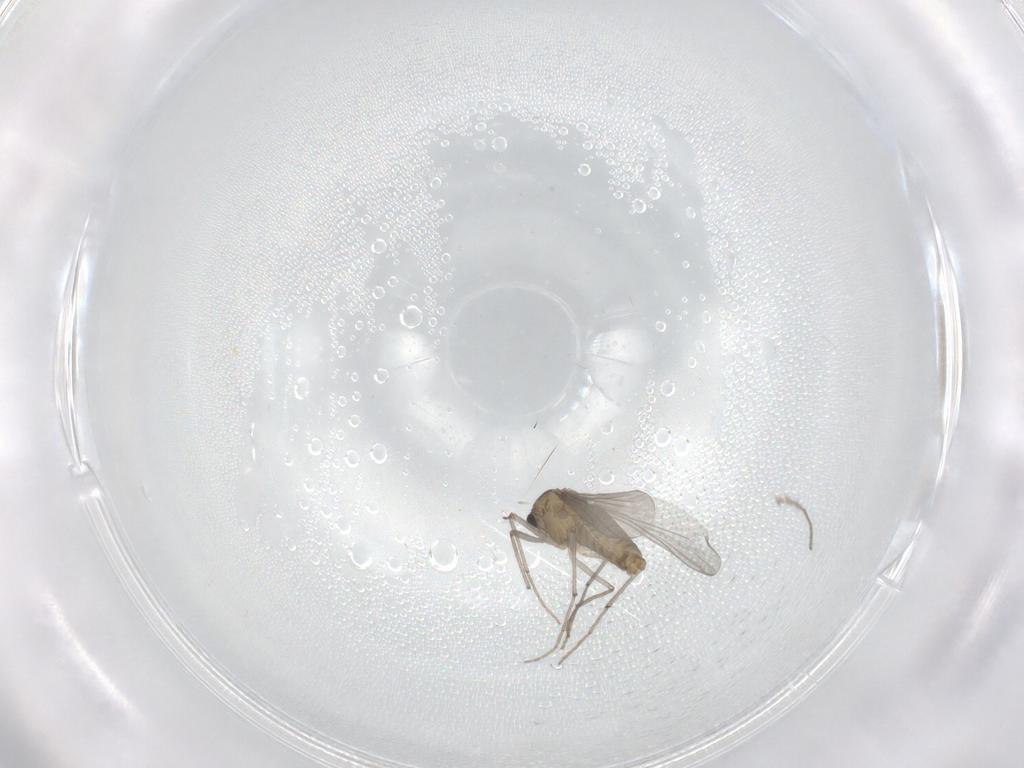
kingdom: Animalia
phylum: Arthropoda
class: Insecta
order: Diptera
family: Chironomidae
